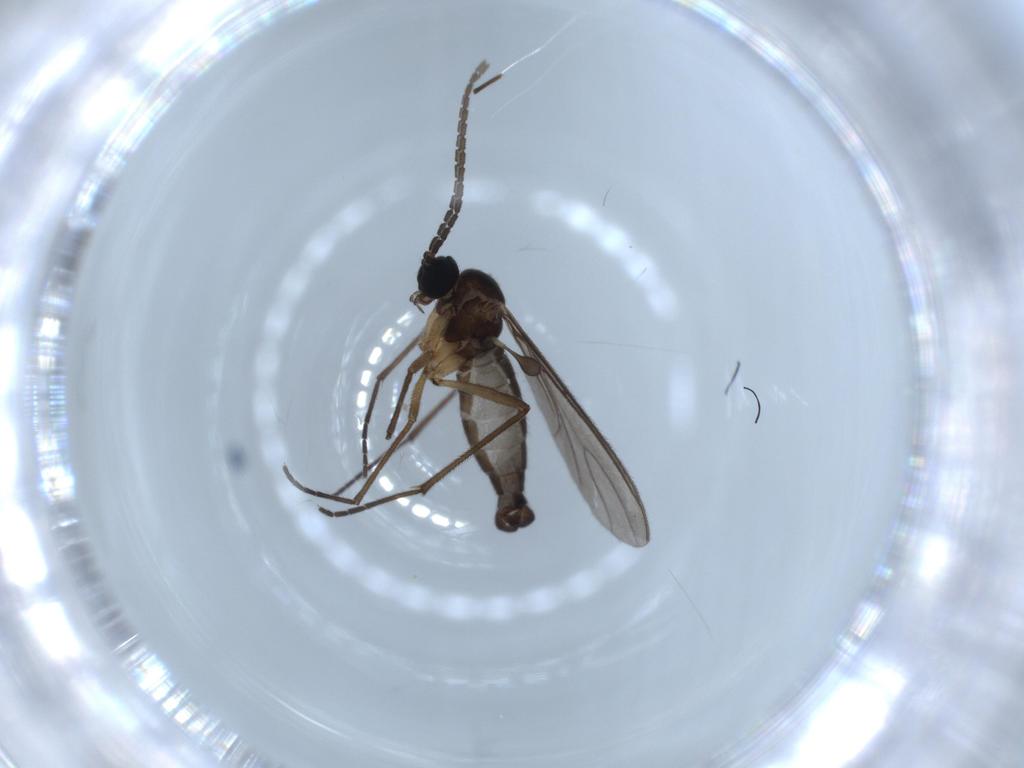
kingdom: Animalia
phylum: Arthropoda
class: Insecta
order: Diptera
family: Sciaridae
